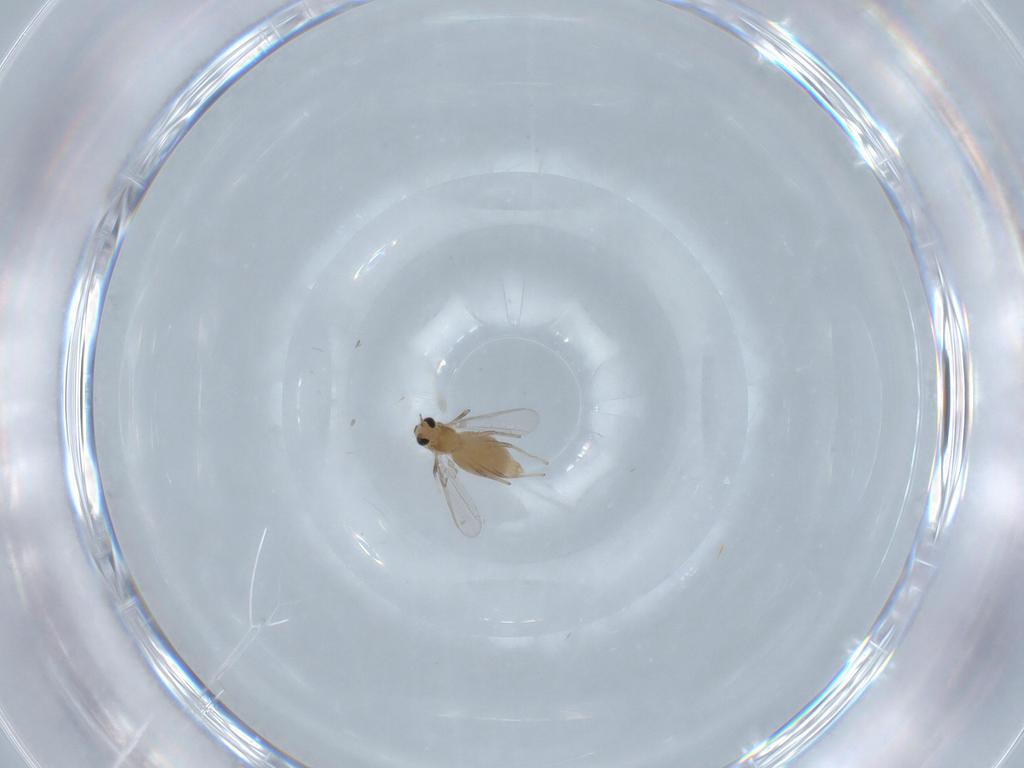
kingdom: Animalia
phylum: Arthropoda
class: Insecta
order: Diptera
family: Chironomidae
